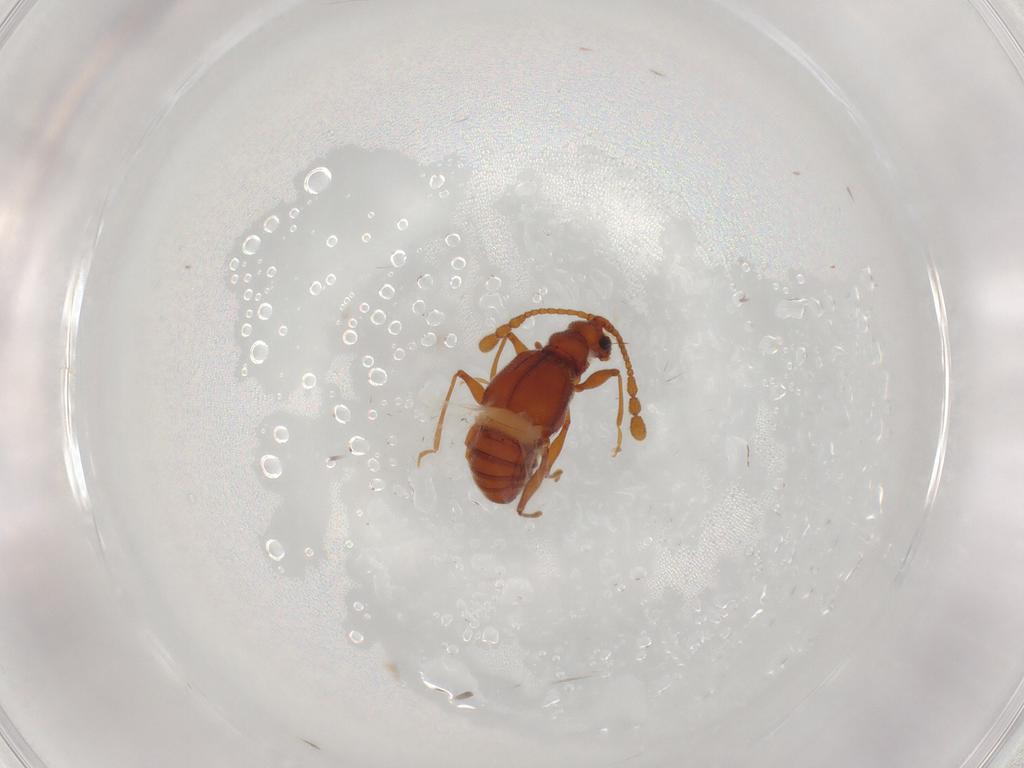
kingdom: Animalia
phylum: Arthropoda
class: Insecta
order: Coleoptera
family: Staphylinidae
